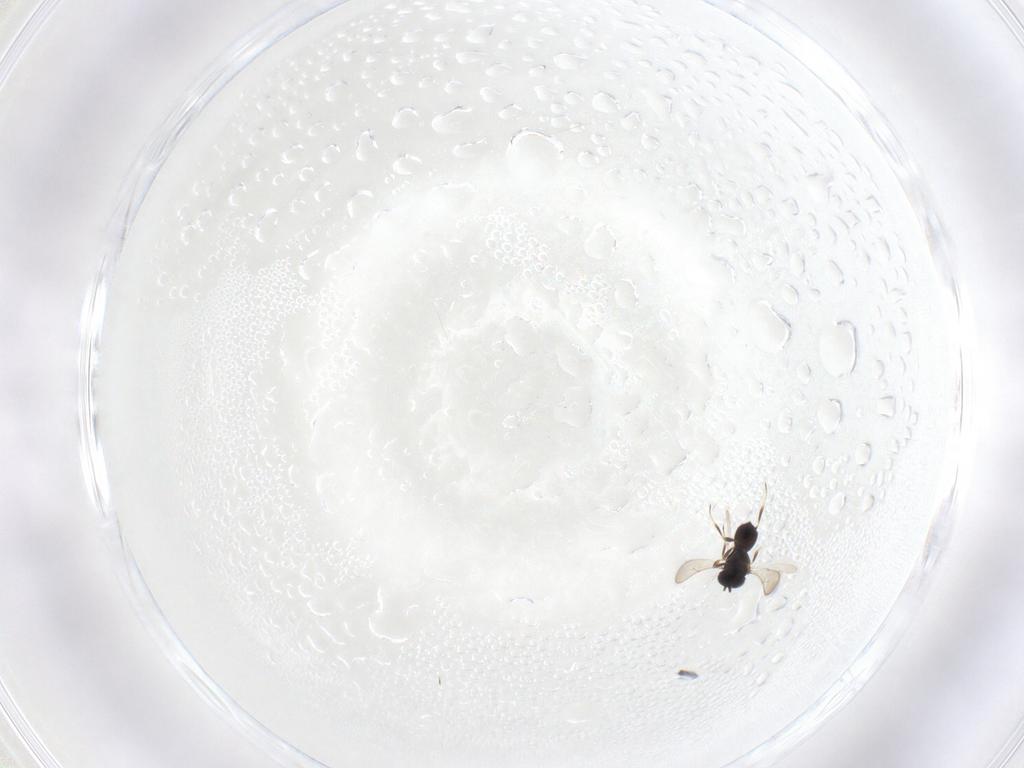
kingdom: Animalia
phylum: Arthropoda
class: Insecta
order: Hymenoptera
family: Scelionidae
